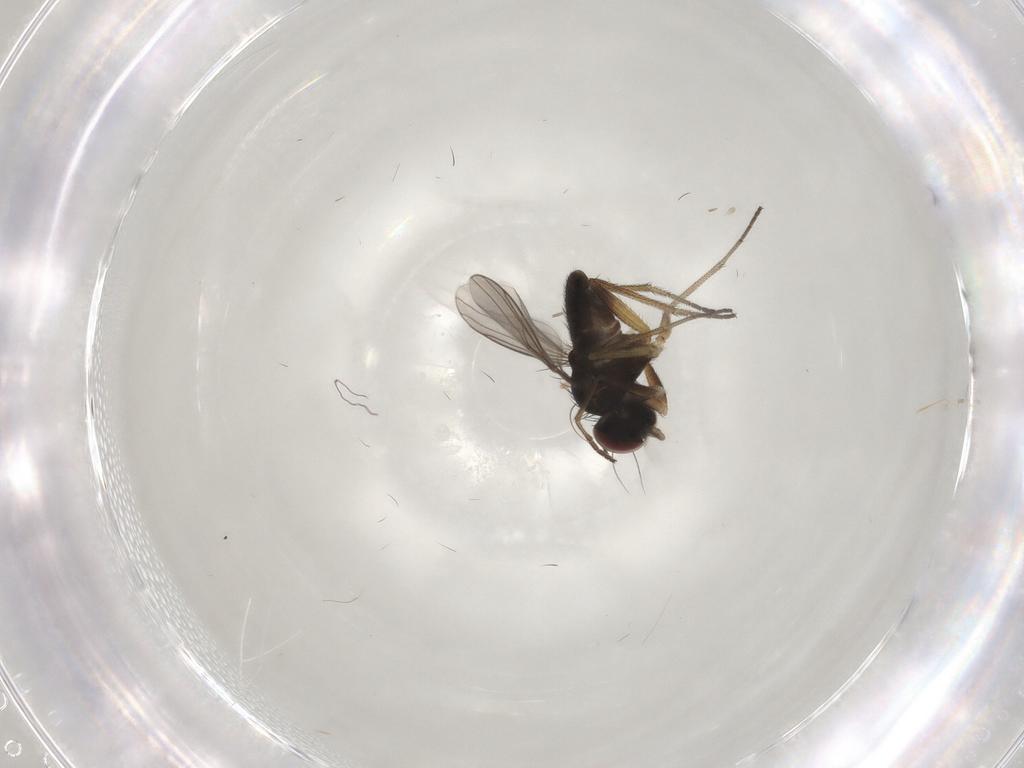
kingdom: Animalia
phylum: Arthropoda
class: Insecta
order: Diptera
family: Dolichopodidae
